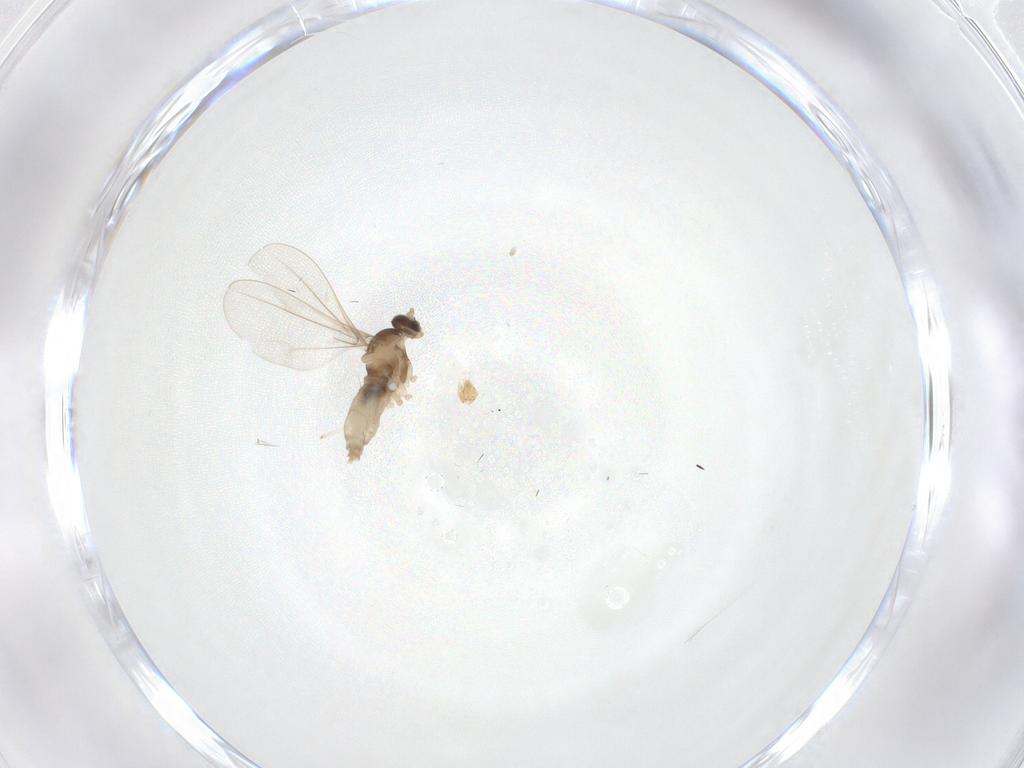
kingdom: Animalia
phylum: Arthropoda
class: Insecta
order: Diptera
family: Cecidomyiidae
